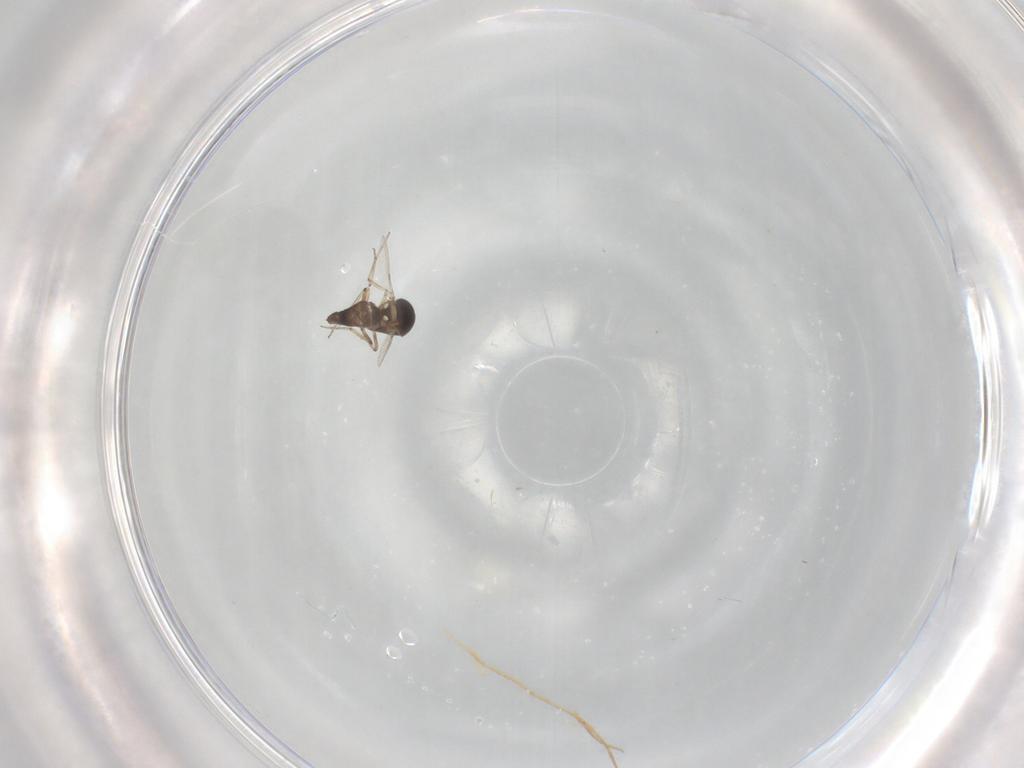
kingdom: Animalia
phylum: Arthropoda
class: Insecta
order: Diptera
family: Ceratopogonidae
